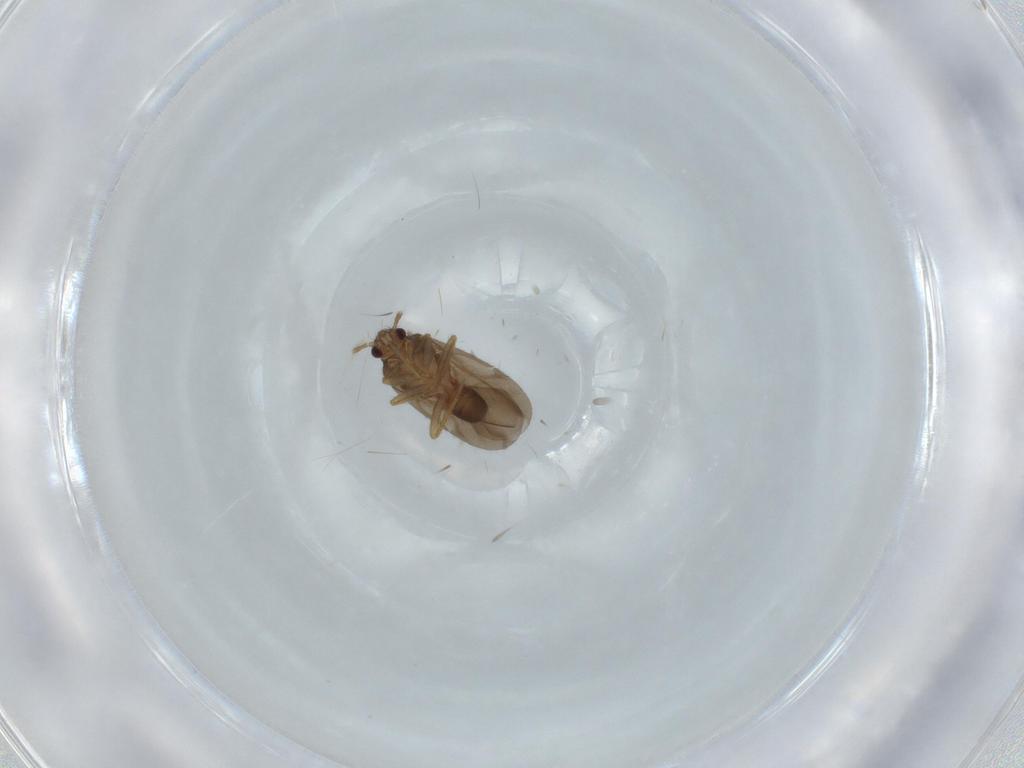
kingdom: Animalia
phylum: Arthropoda
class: Insecta
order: Hemiptera
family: Ceratocombidae
